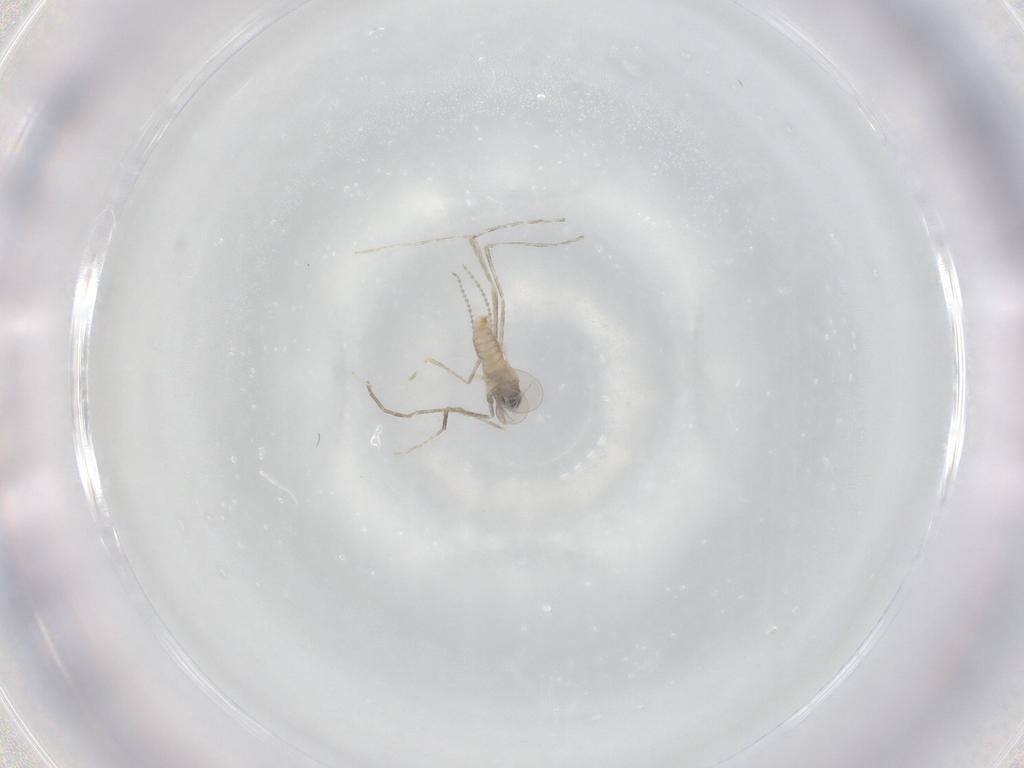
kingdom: Animalia
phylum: Arthropoda
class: Insecta
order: Diptera
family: Cecidomyiidae
